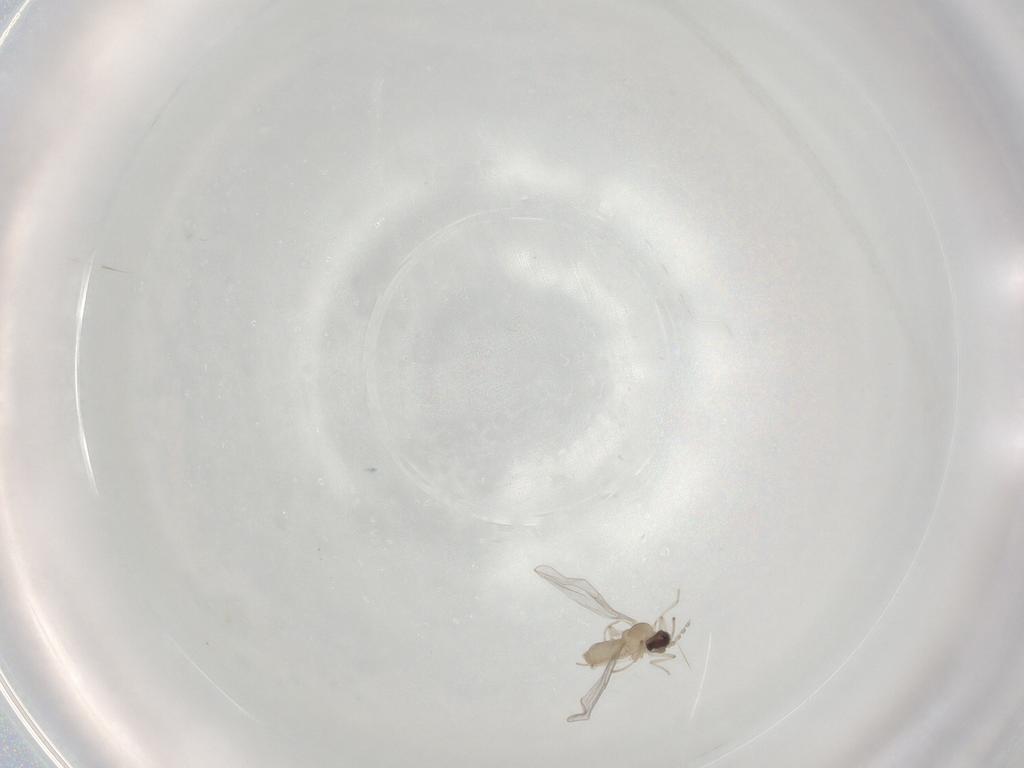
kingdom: Animalia
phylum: Arthropoda
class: Insecta
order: Diptera
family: Cecidomyiidae
